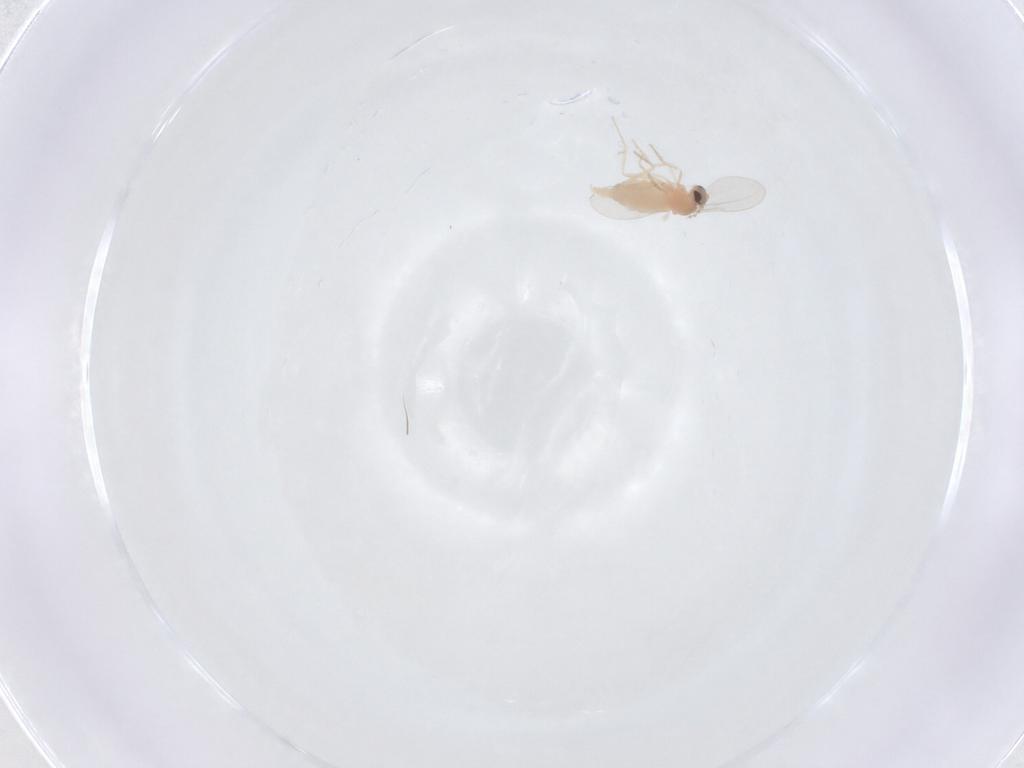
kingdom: Animalia
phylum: Arthropoda
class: Insecta
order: Diptera
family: Cecidomyiidae
